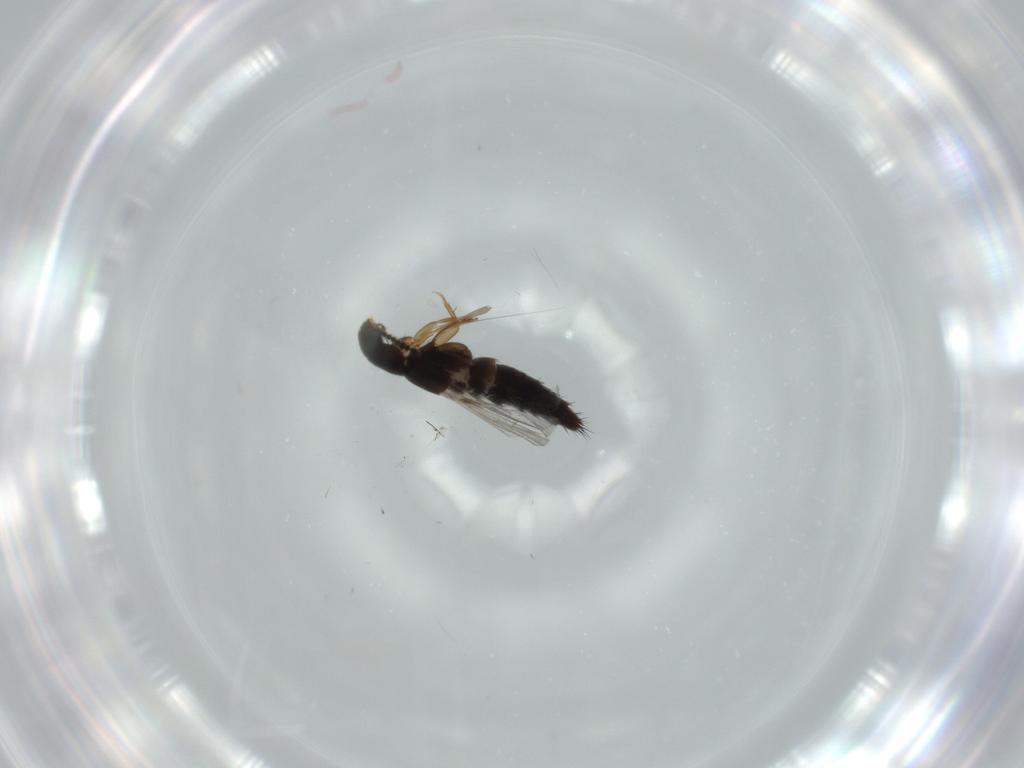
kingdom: Animalia
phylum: Arthropoda
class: Insecta
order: Coleoptera
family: Staphylinidae
